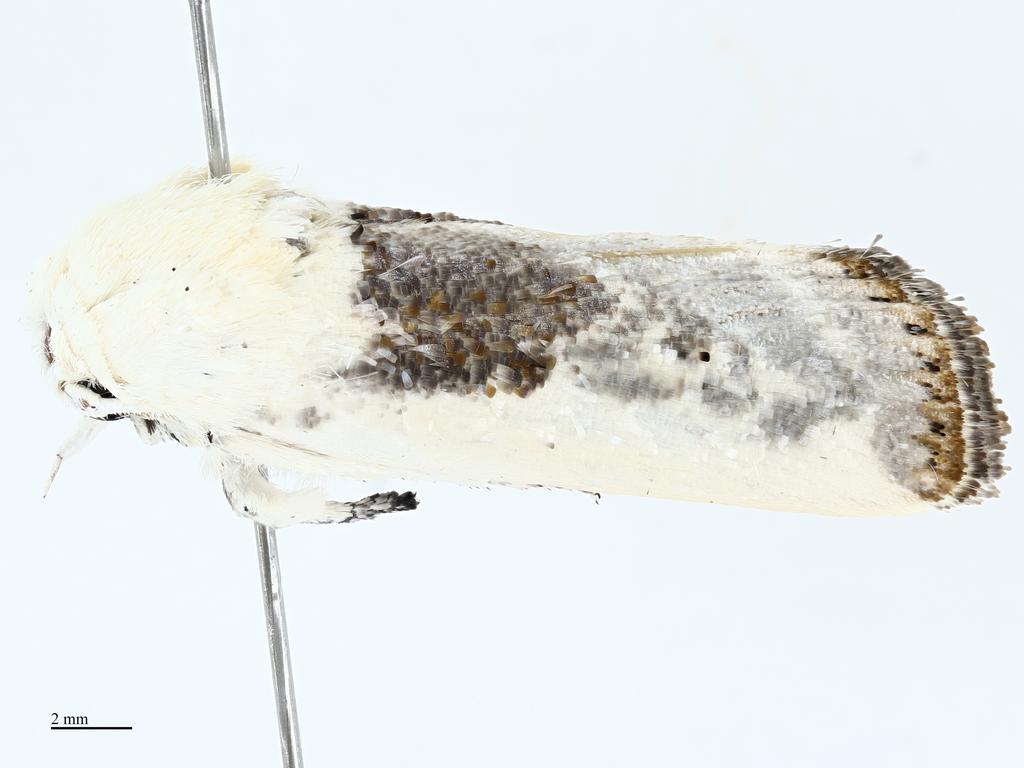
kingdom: Animalia
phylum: Arthropoda
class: Insecta
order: Lepidoptera
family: Xyloryctidae
